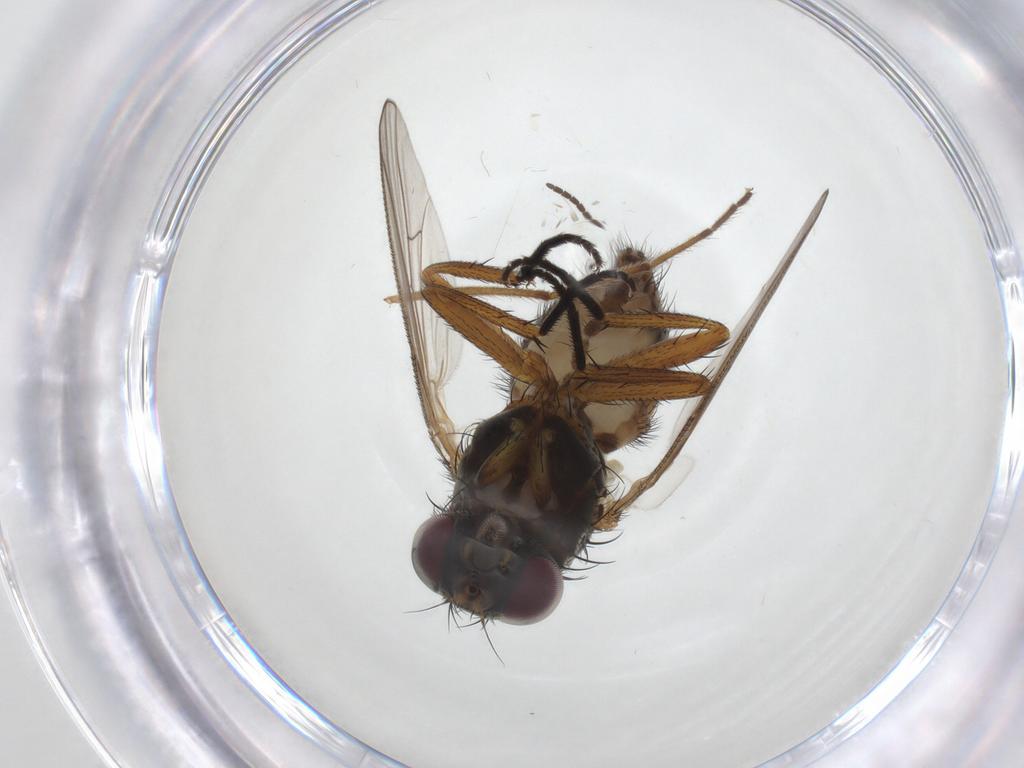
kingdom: Animalia
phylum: Arthropoda
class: Insecta
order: Diptera
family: Fannia
